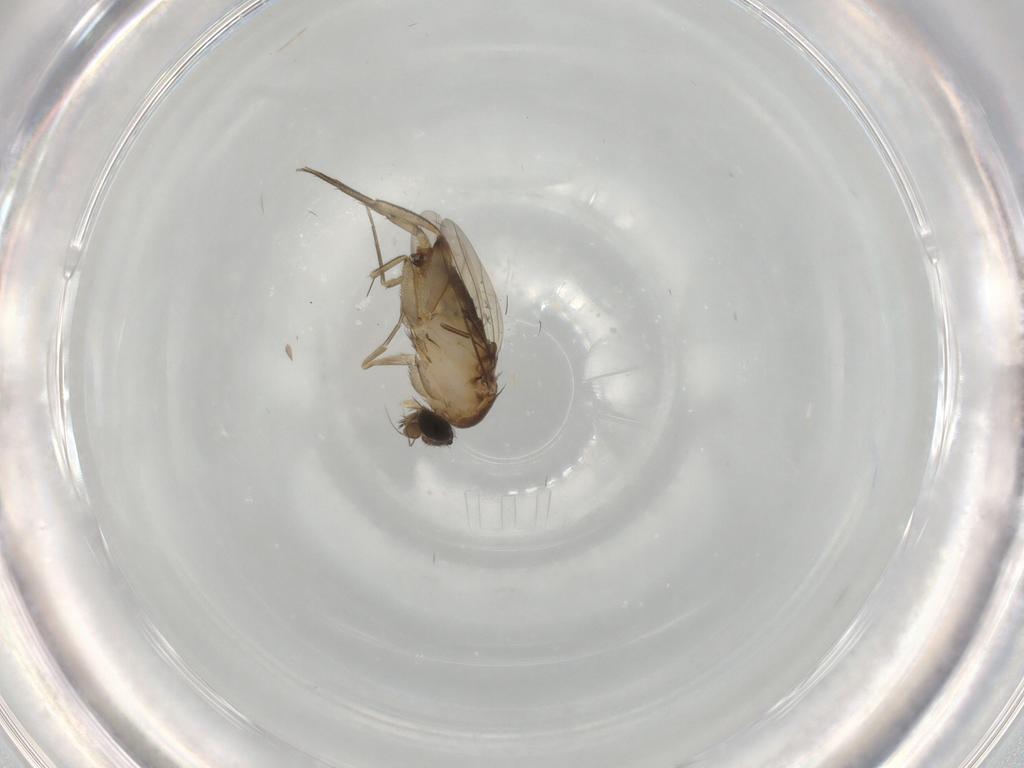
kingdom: Animalia
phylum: Arthropoda
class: Insecta
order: Diptera
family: Phoridae
